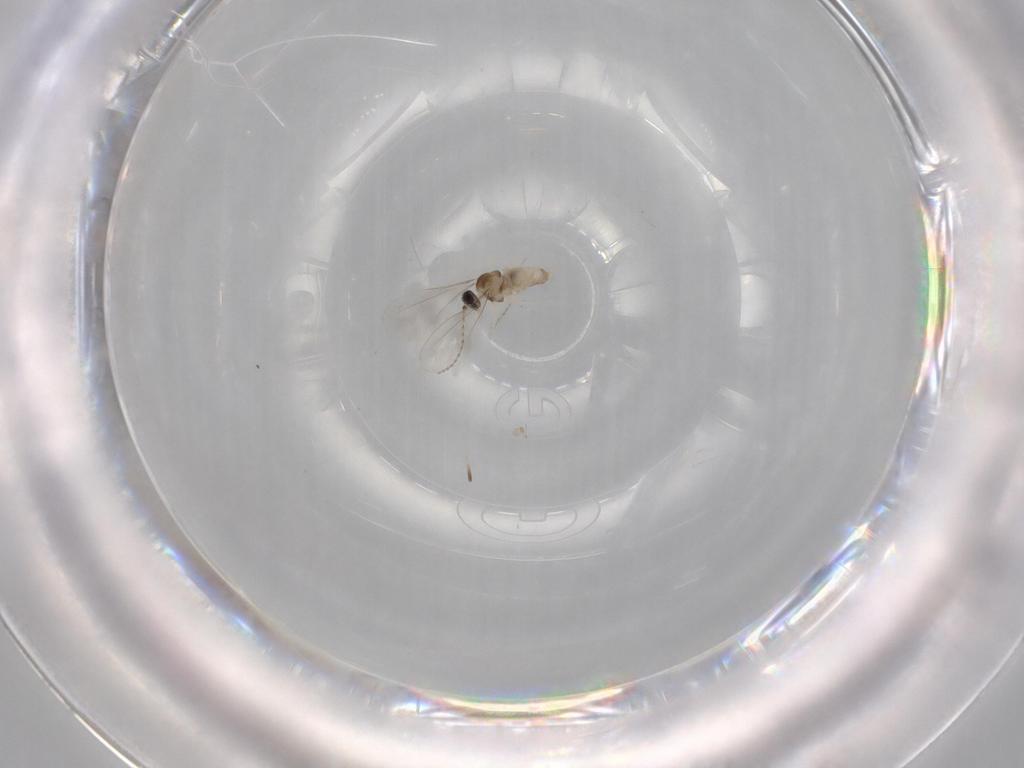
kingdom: Animalia
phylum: Arthropoda
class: Insecta
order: Diptera
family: Cecidomyiidae
